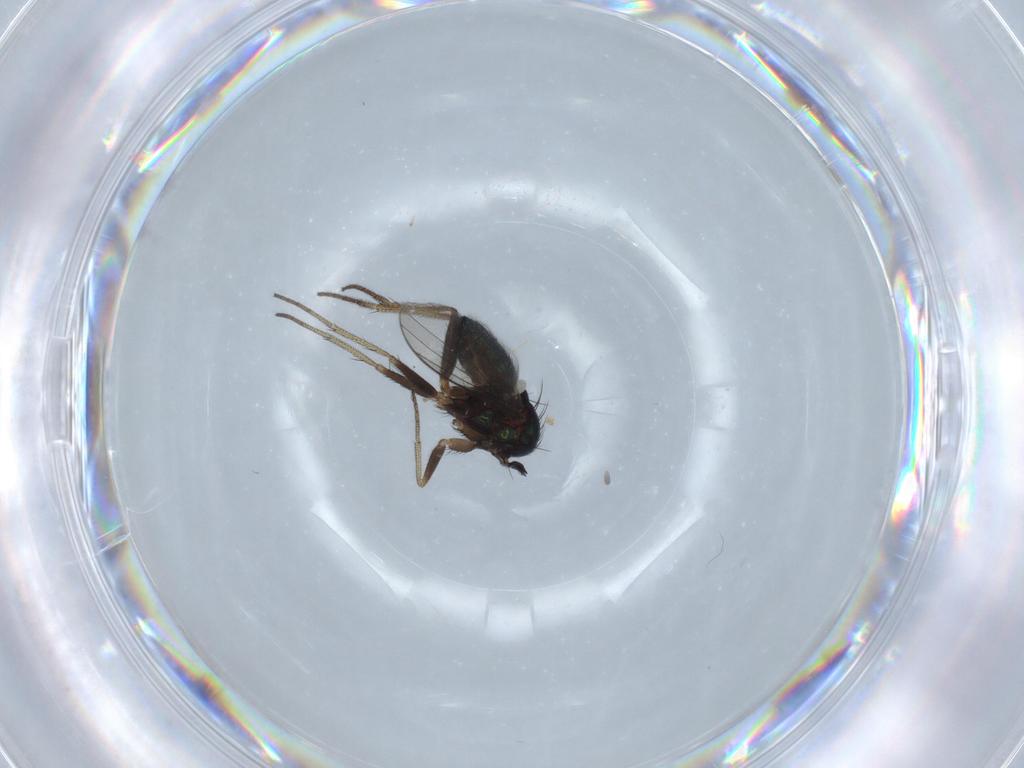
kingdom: Animalia
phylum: Arthropoda
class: Insecta
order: Diptera
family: Dolichopodidae
